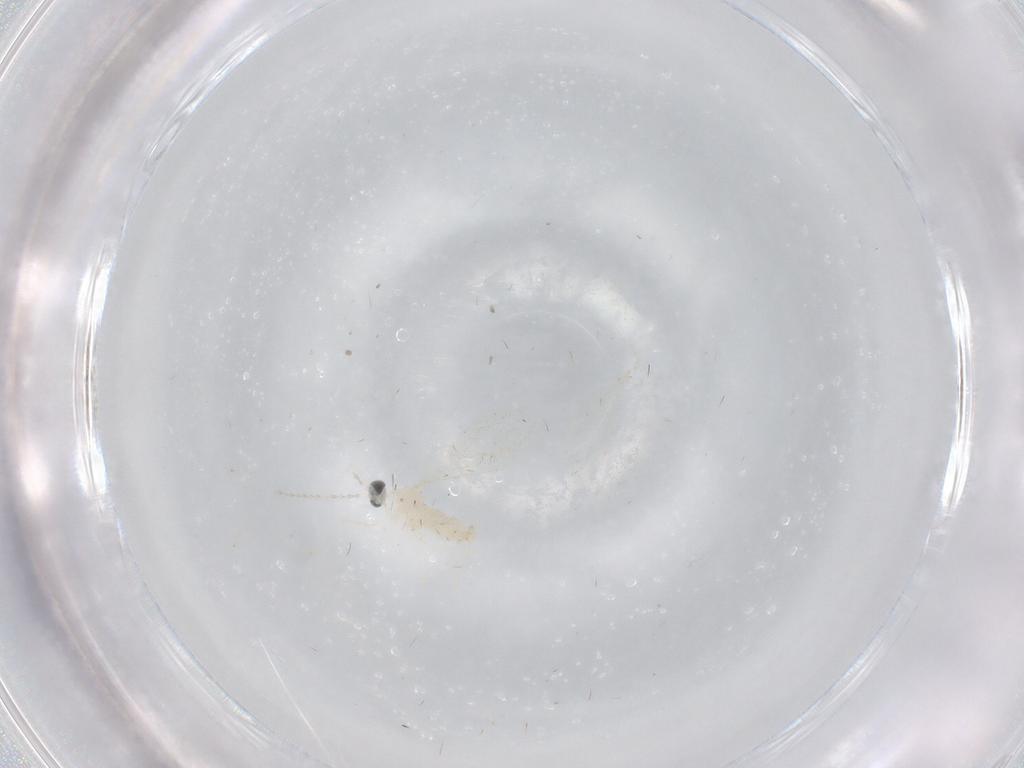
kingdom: Animalia
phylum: Arthropoda
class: Insecta
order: Diptera
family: Cecidomyiidae
